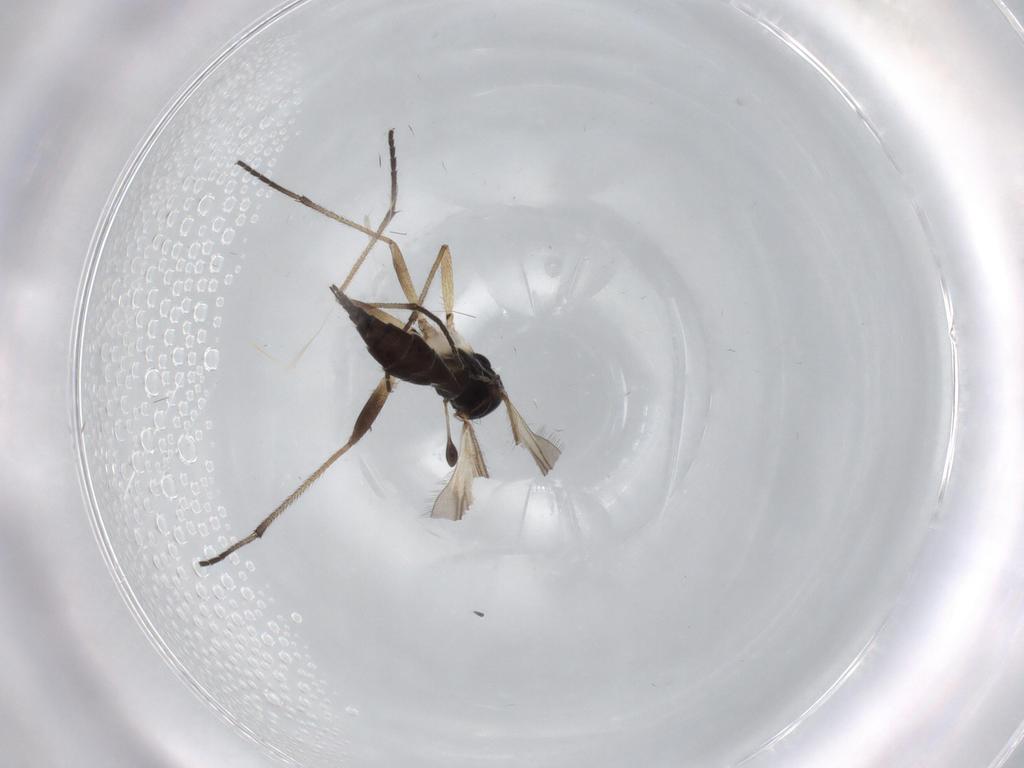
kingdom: Animalia
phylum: Arthropoda
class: Insecta
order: Diptera
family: Sciaridae
